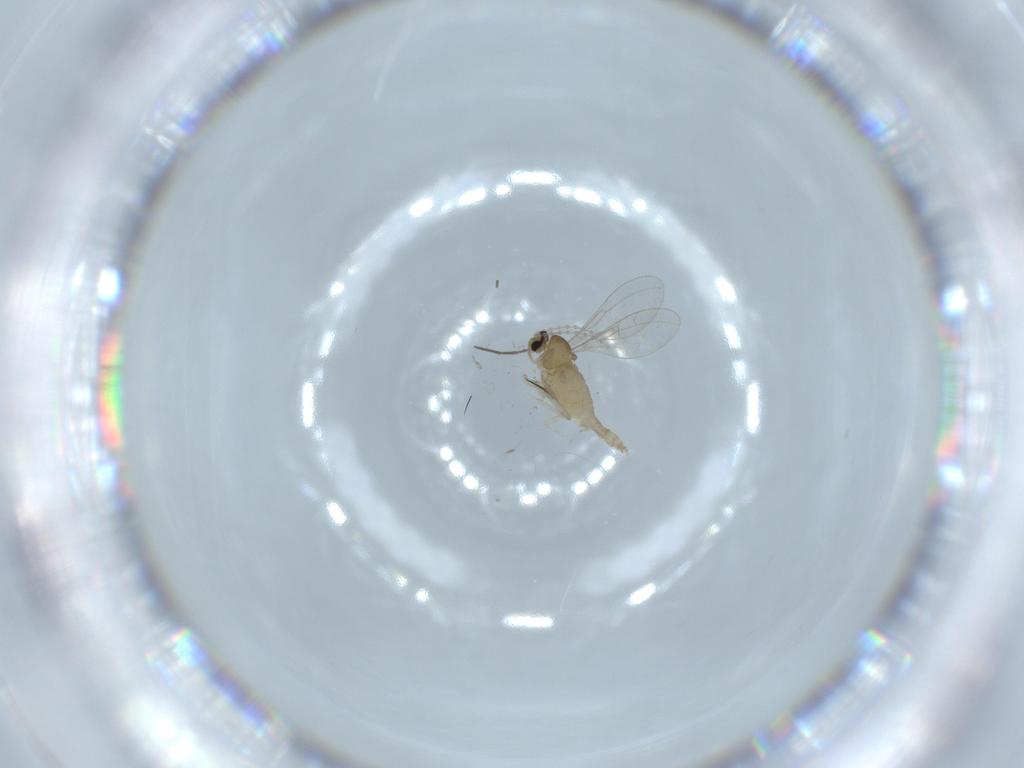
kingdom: Animalia
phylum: Arthropoda
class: Insecta
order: Diptera
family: Cecidomyiidae
